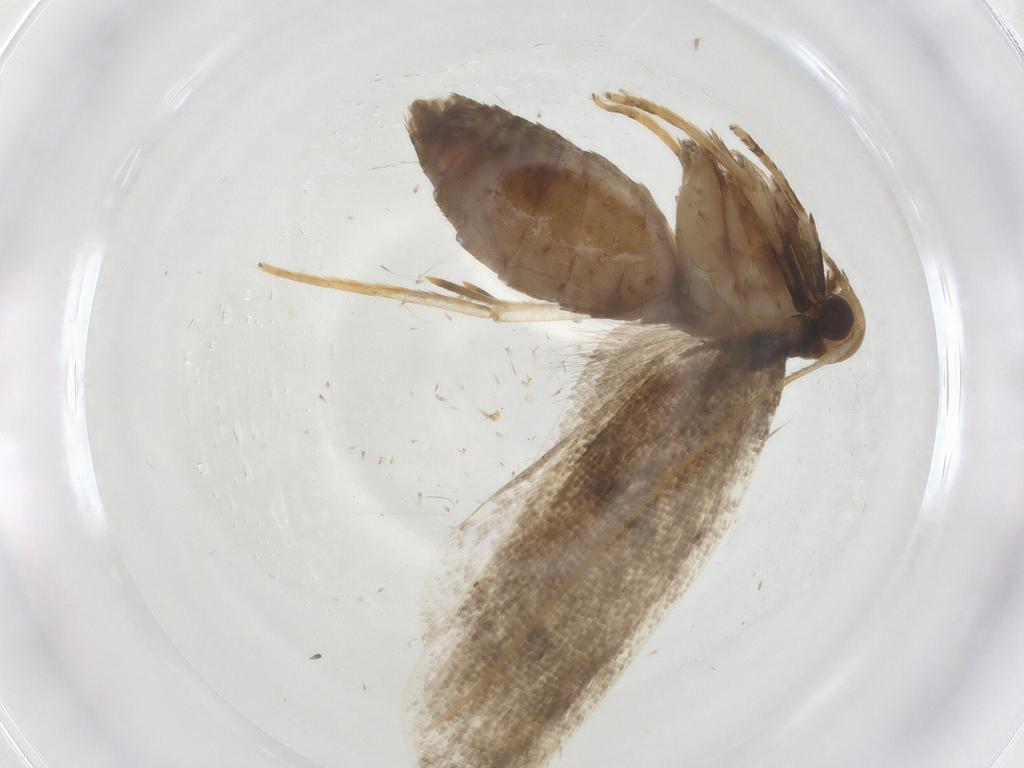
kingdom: Animalia
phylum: Arthropoda
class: Insecta
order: Lepidoptera
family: Lecithoceridae
